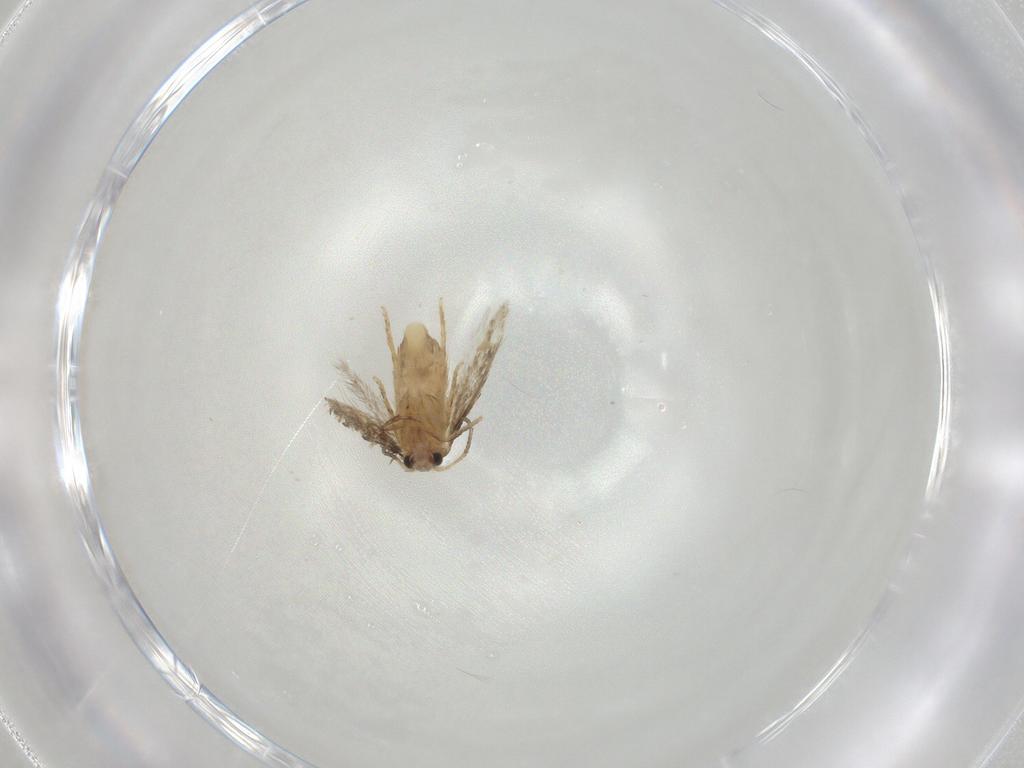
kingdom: Animalia
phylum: Arthropoda
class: Insecta
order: Lepidoptera
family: Nepticulidae
